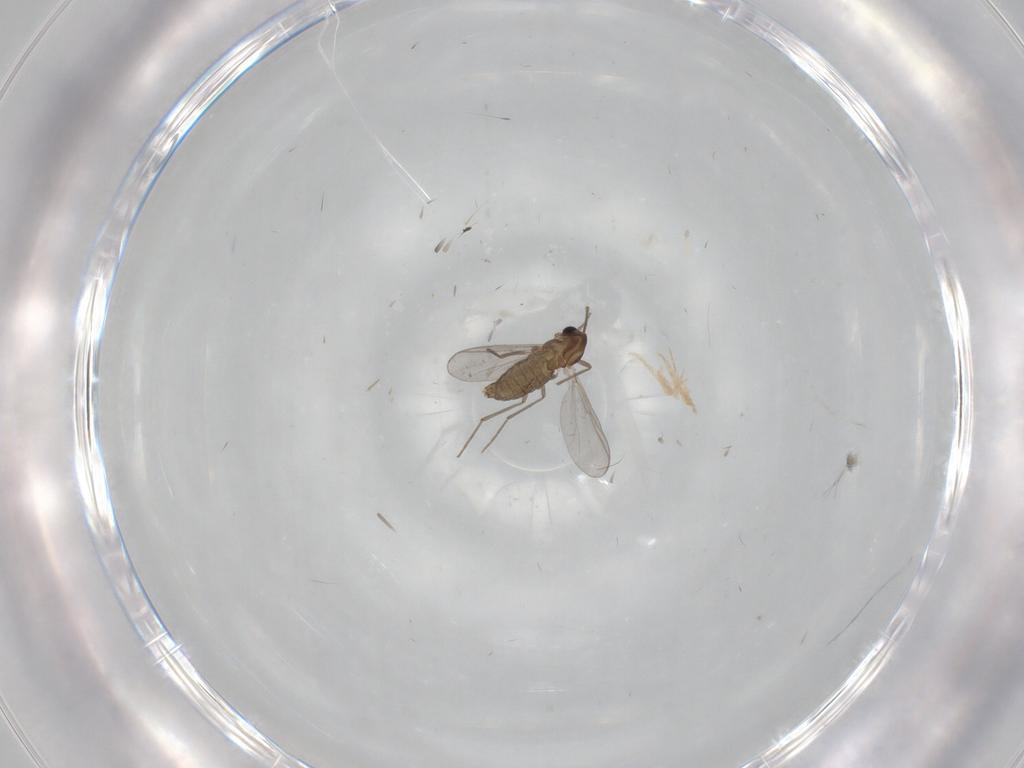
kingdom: Animalia
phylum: Arthropoda
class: Insecta
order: Diptera
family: Chironomidae
